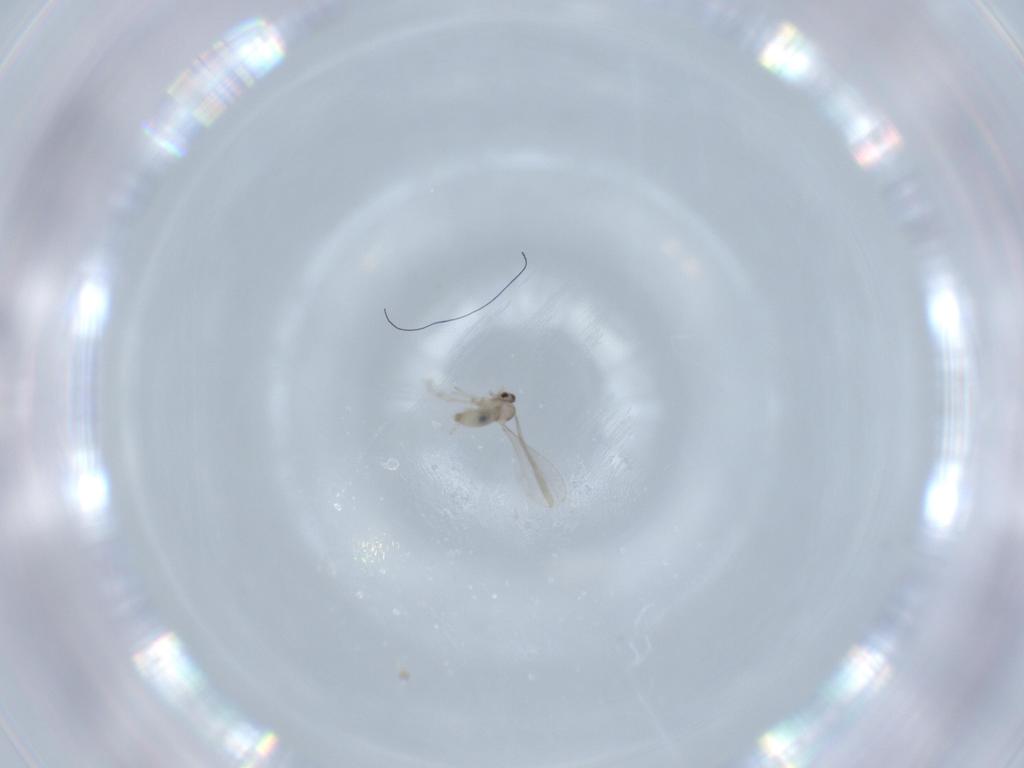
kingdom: Animalia
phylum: Arthropoda
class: Insecta
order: Diptera
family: Cecidomyiidae
